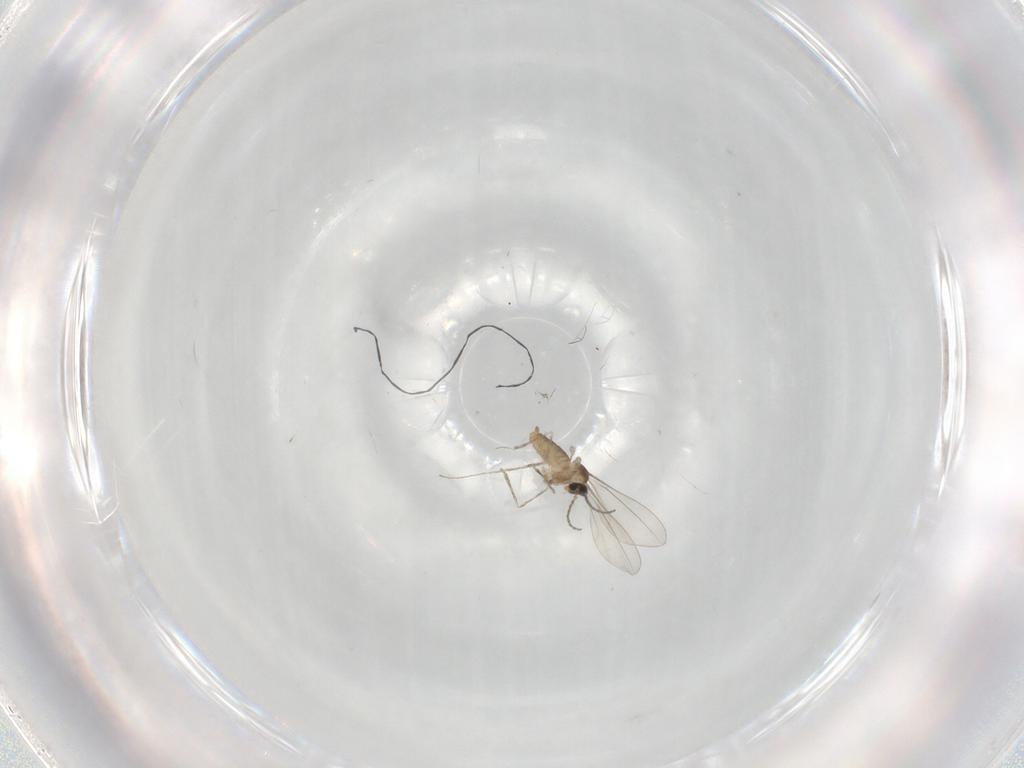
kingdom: Animalia
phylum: Arthropoda
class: Insecta
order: Diptera
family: Cecidomyiidae
